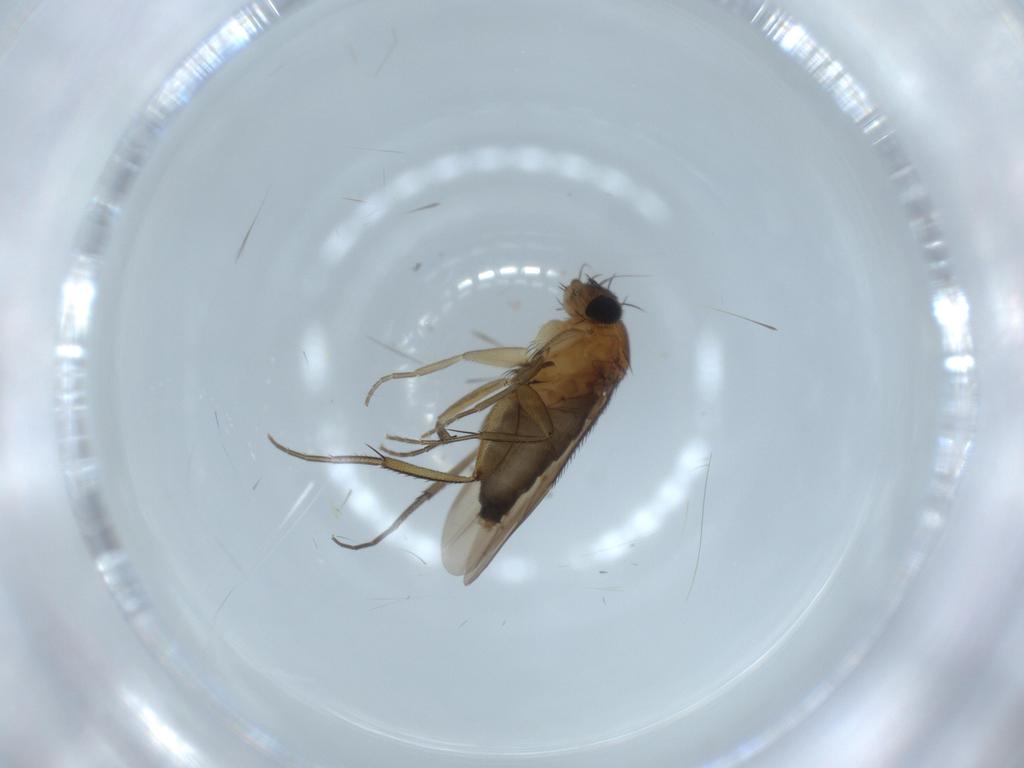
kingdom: Animalia
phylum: Arthropoda
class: Insecta
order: Diptera
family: Phoridae
